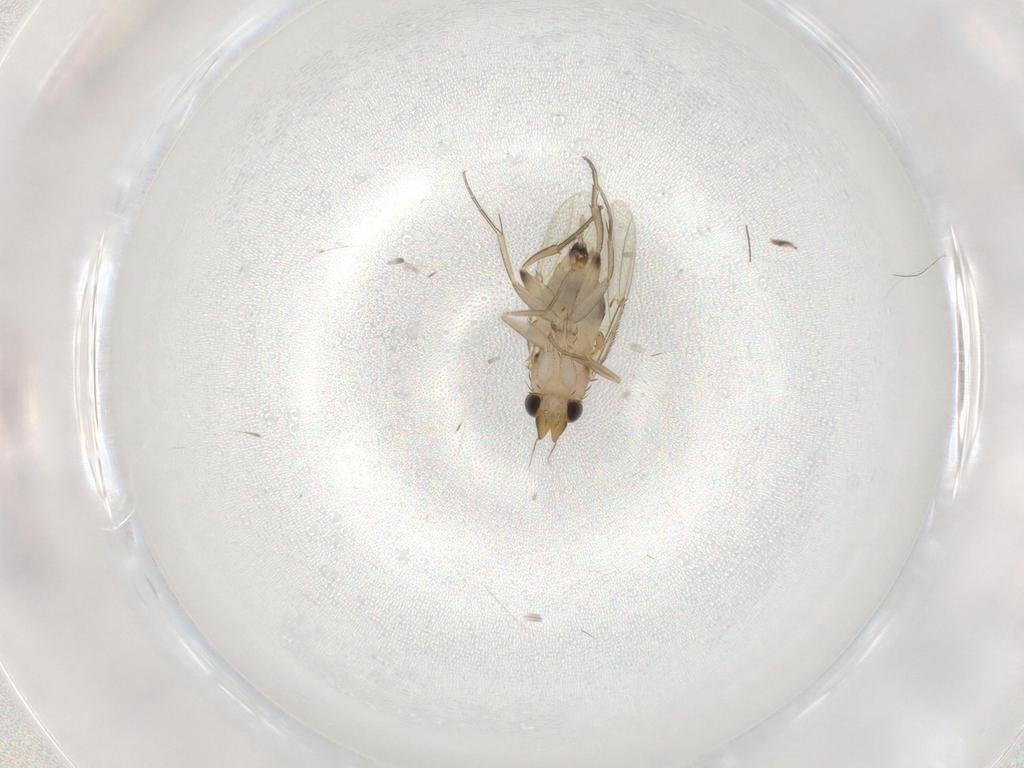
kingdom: Animalia
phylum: Arthropoda
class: Insecta
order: Diptera
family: Phoridae
